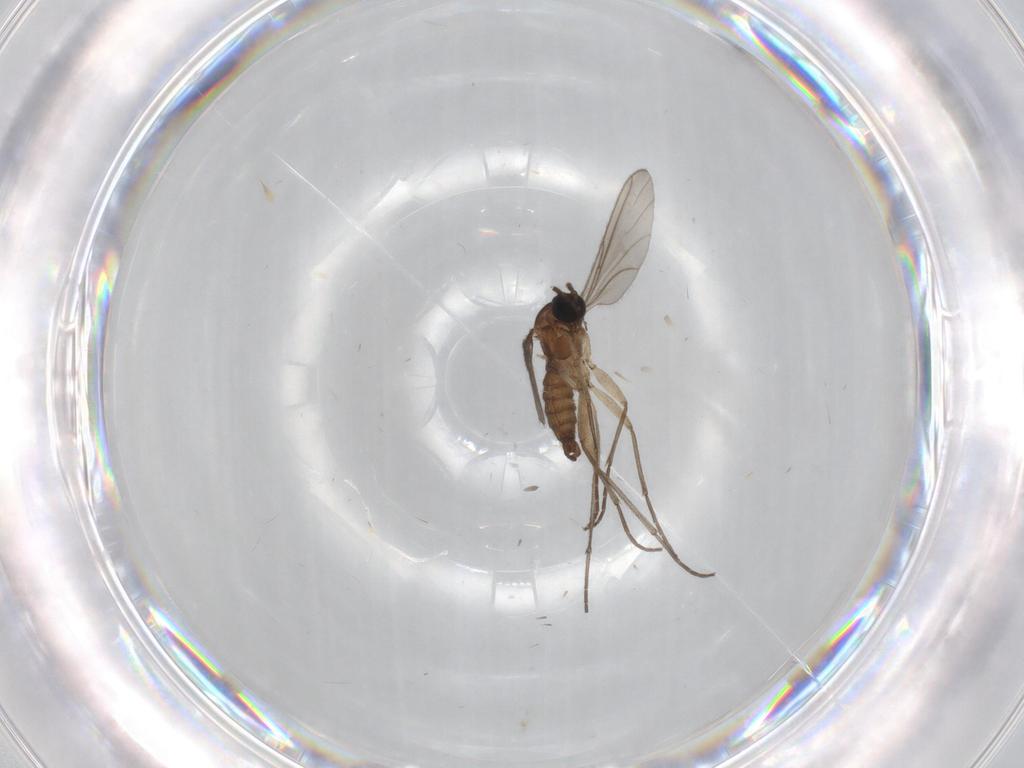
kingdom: Animalia
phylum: Arthropoda
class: Insecta
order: Diptera
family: Sciaridae
